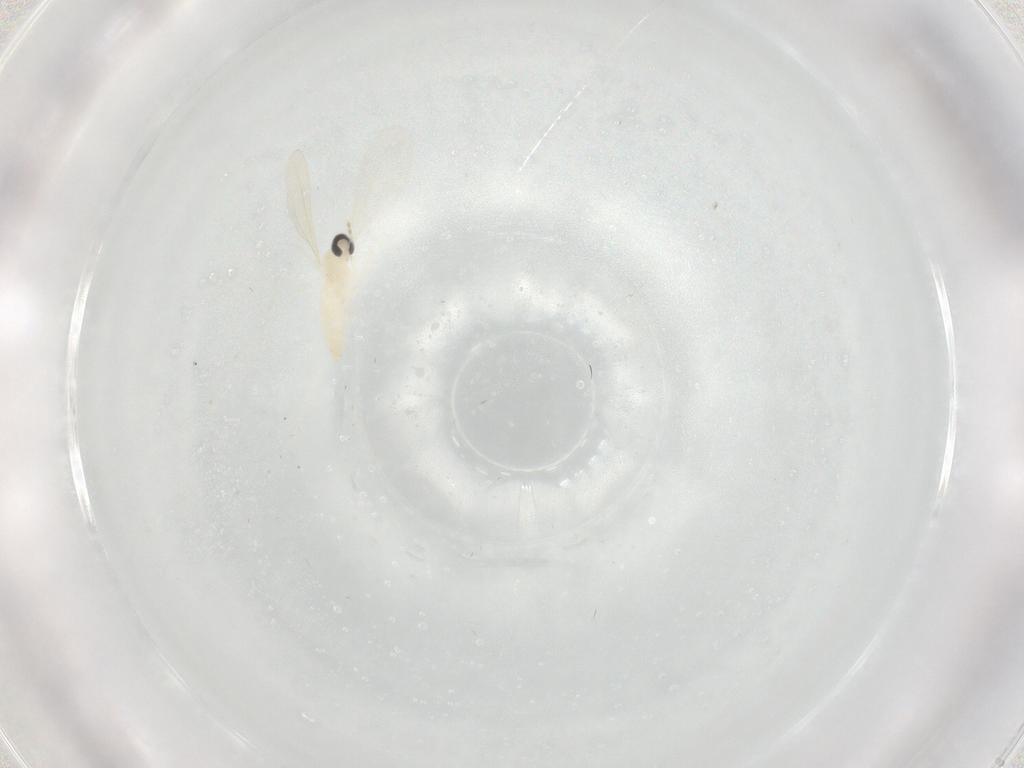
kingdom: Animalia
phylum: Arthropoda
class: Insecta
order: Diptera
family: Cecidomyiidae
